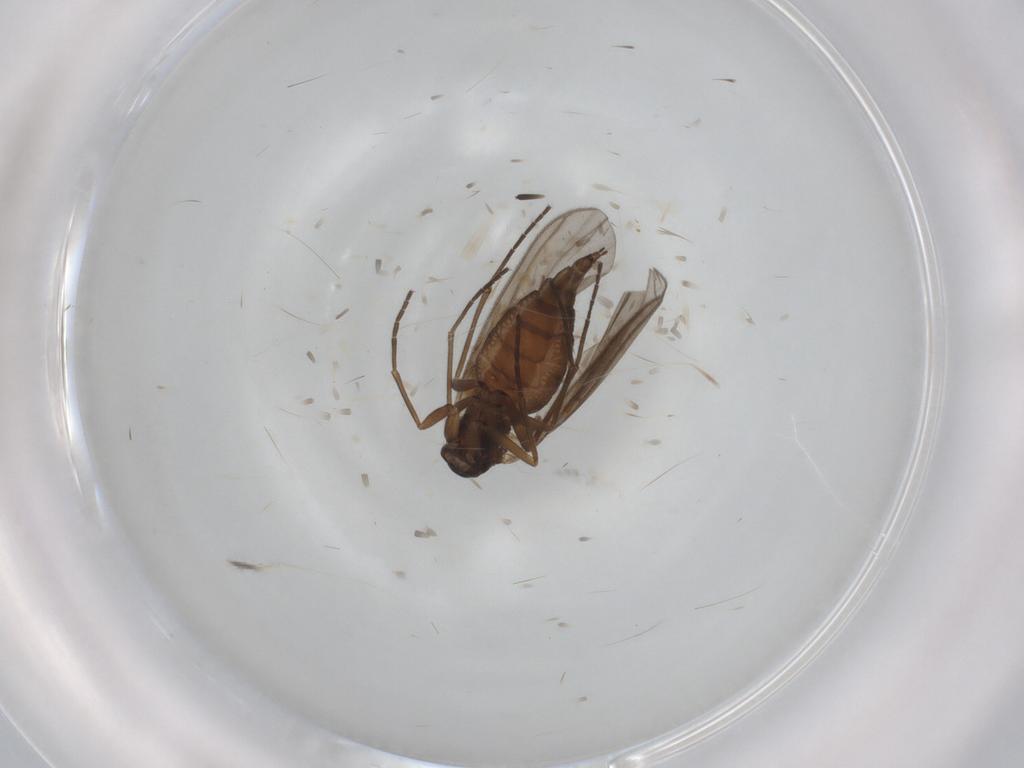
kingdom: Animalia
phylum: Arthropoda
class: Insecta
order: Diptera
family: Sciaridae
